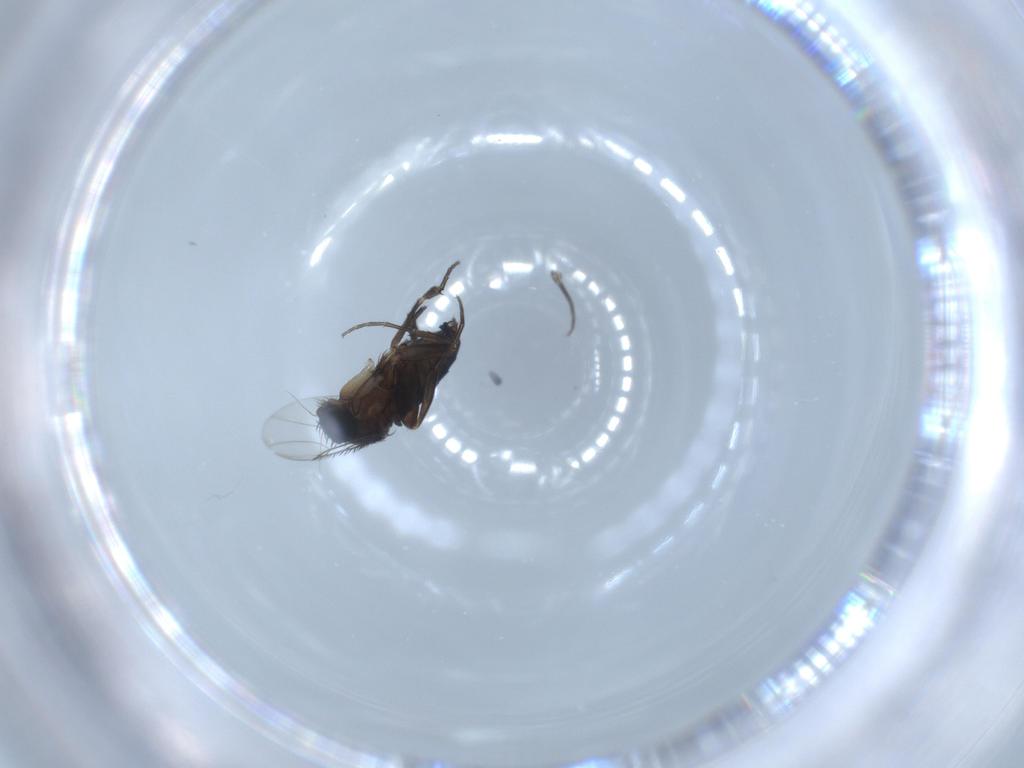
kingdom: Animalia
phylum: Arthropoda
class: Insecta
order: Diptera
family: Phoridae
